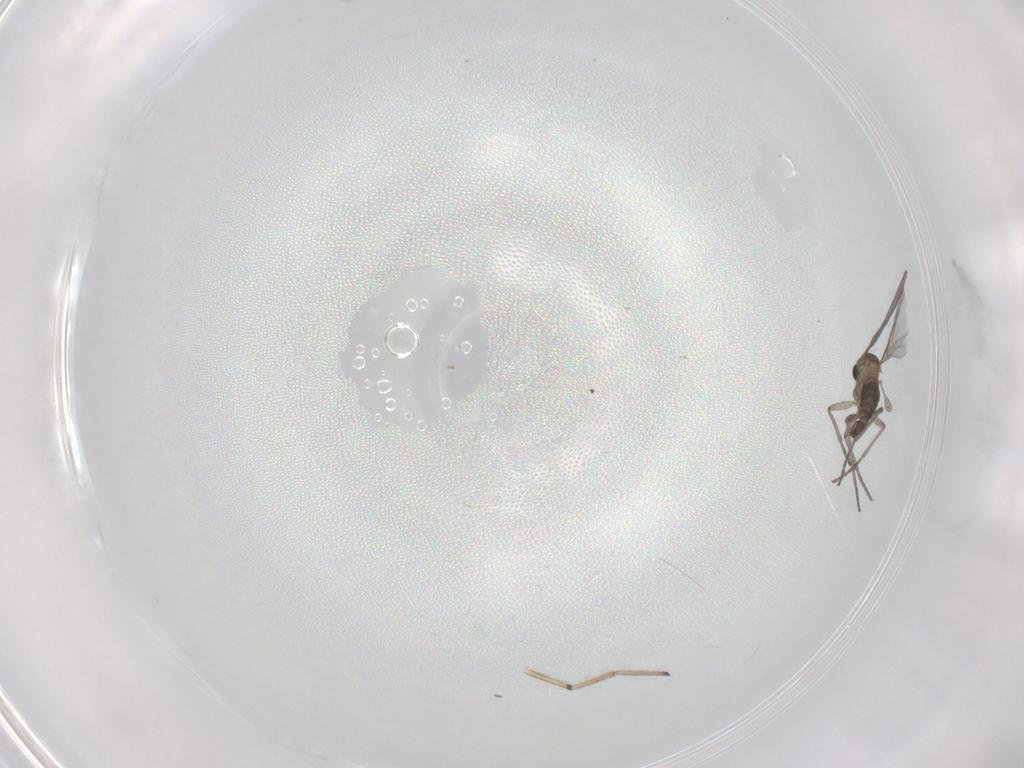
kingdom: Animalia
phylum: Arthropoda
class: Insecta
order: Diptera
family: Sciaridae
